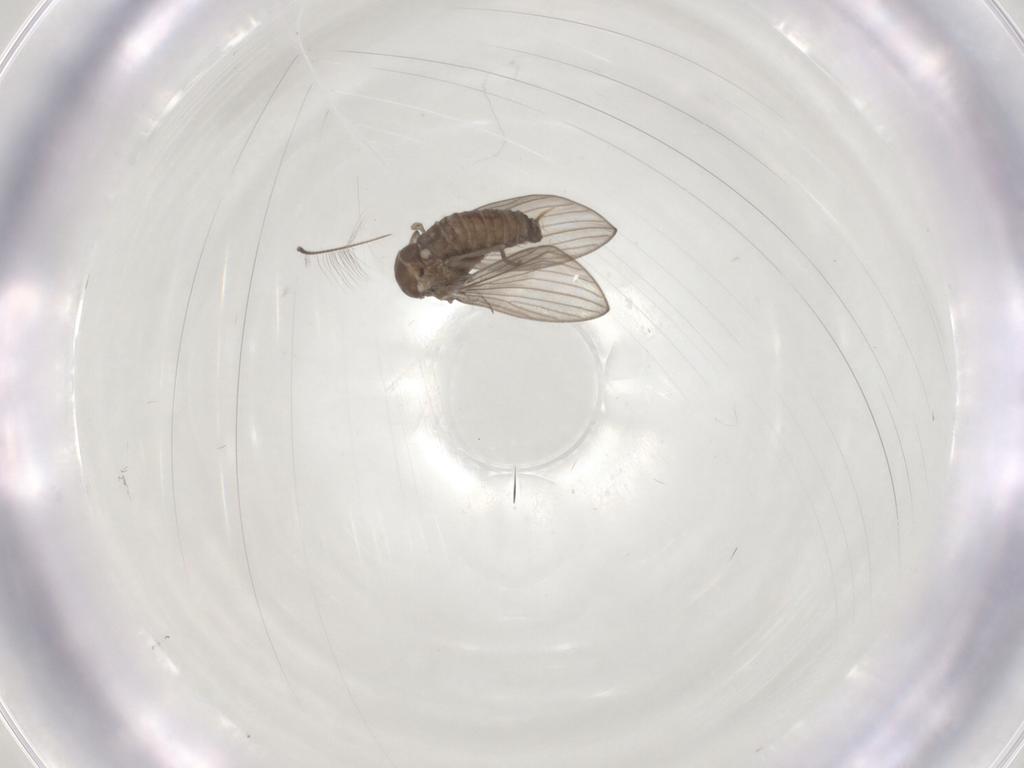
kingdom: Animalia
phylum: Arthropoda
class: Insecta
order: Diptera
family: Psychodidae
